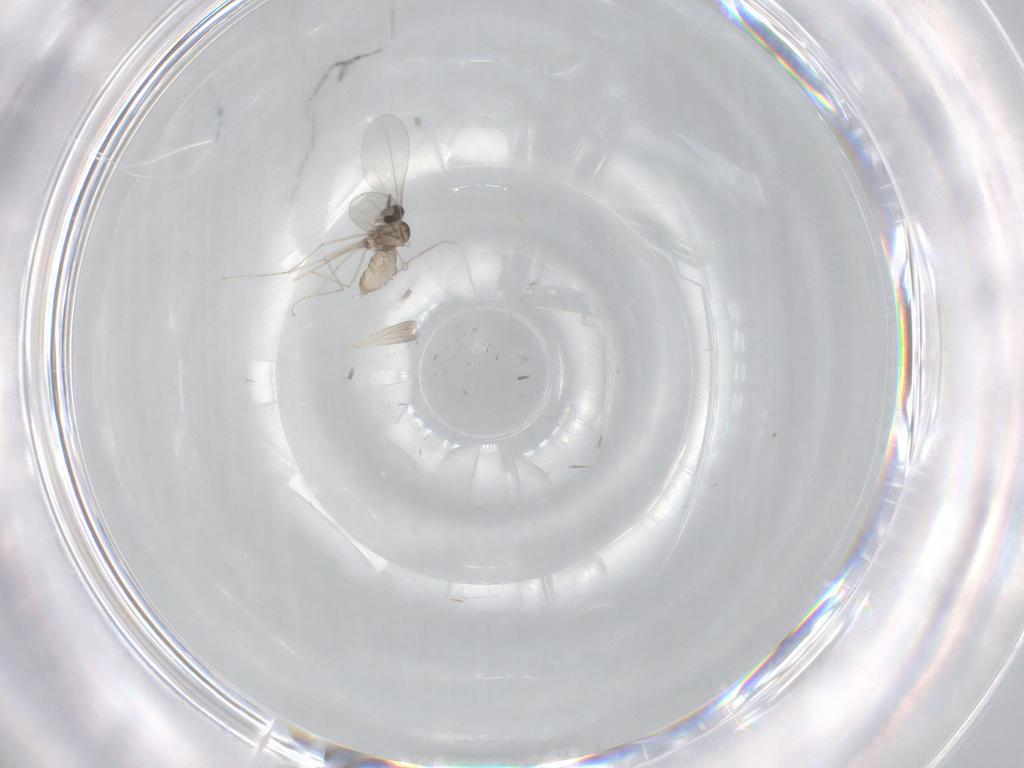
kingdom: Animalia
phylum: Arthropoda
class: Insecta
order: Diptera
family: Cecidomyiidae
